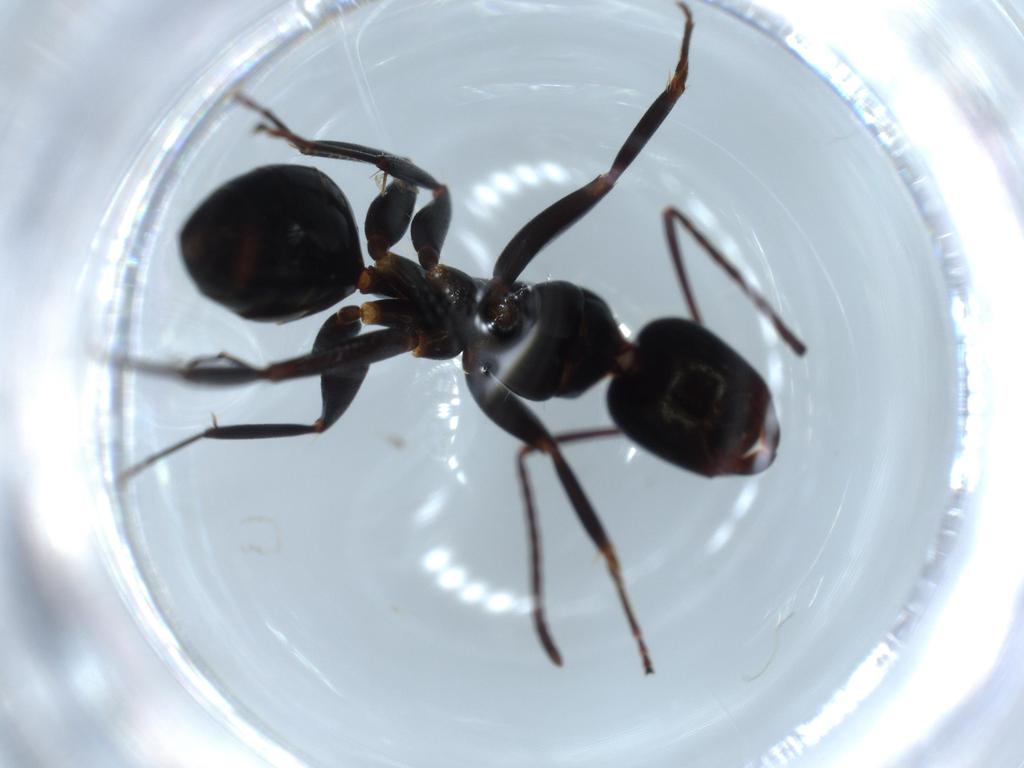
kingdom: Animalia
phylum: Arthropoda
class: Insecta
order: Hymenoptera
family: Formicidae
